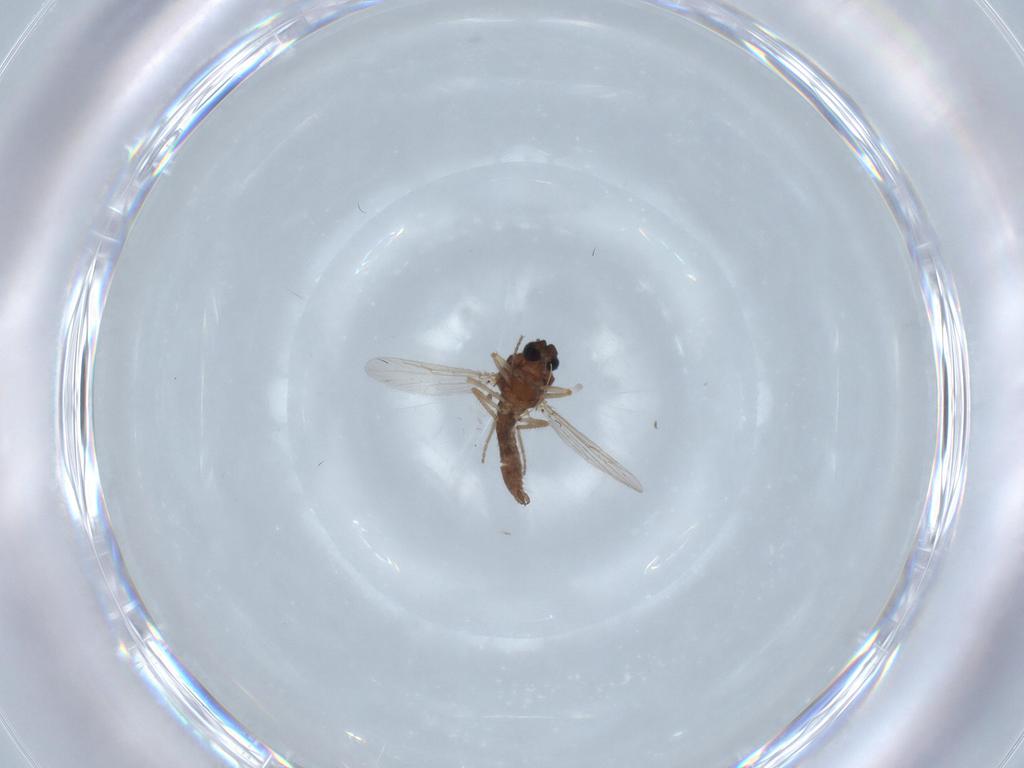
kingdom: Animalia
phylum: Arthropoda
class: Insecta
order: Diptera
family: Ceratopogonidae
